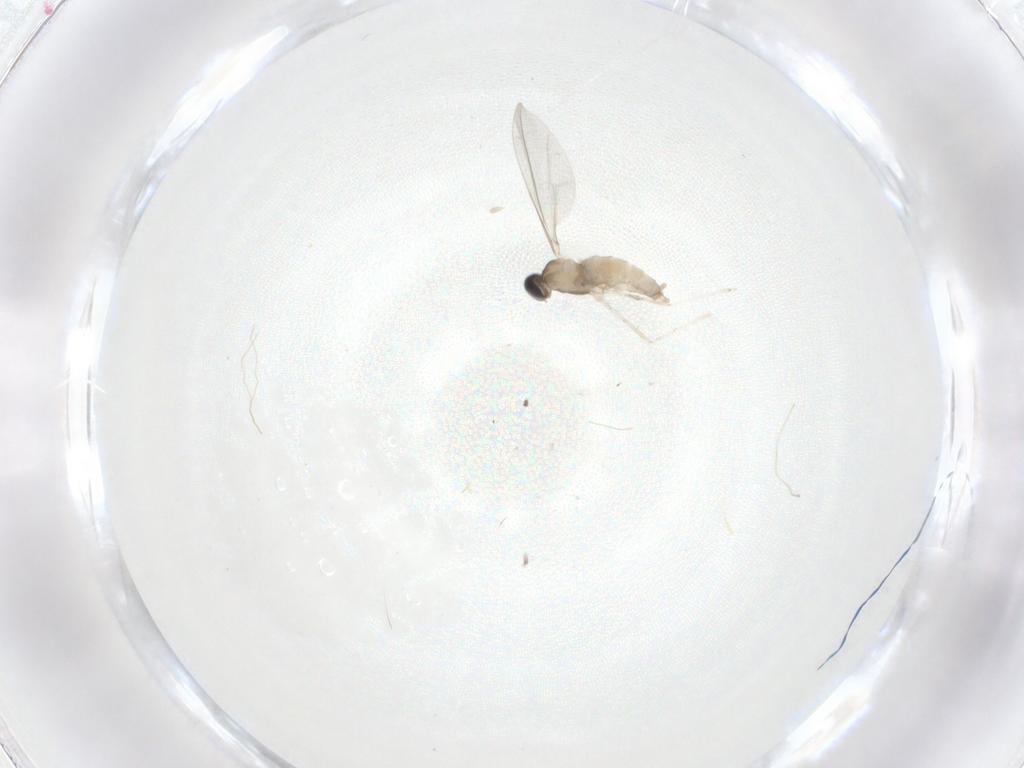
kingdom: Animalia
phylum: Arthropoda
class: Insecta
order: Diptera
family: Cecidomyiidae
